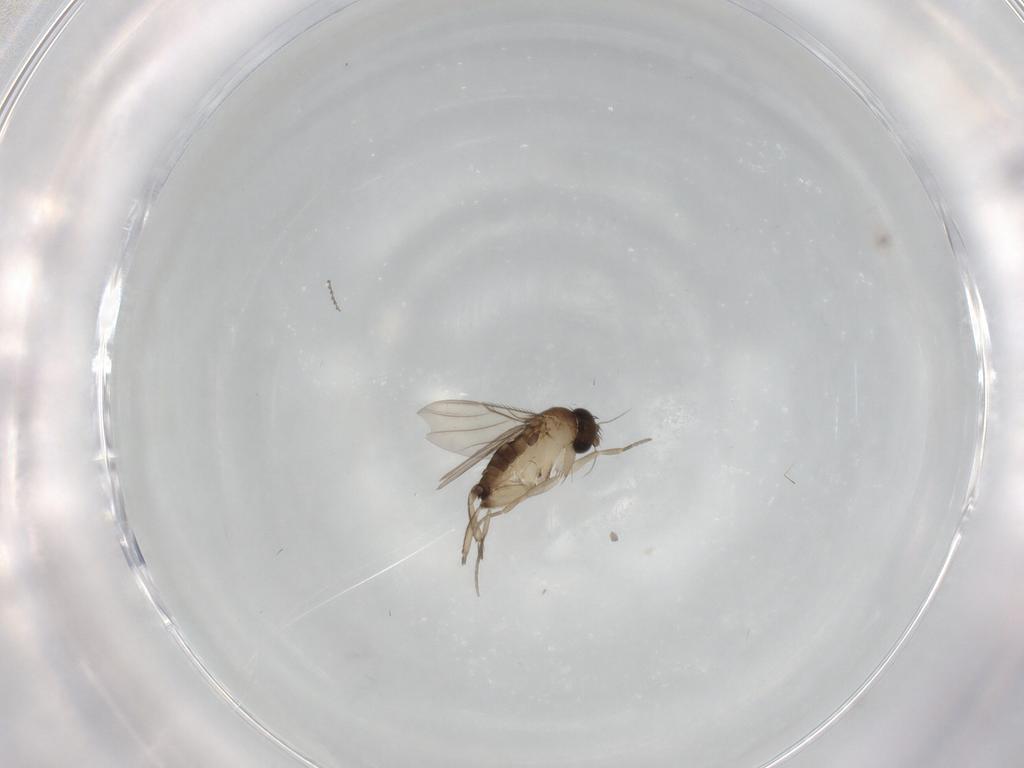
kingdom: Animalia
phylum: Arthropoda
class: Insecta
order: Diptera
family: Phoridae
